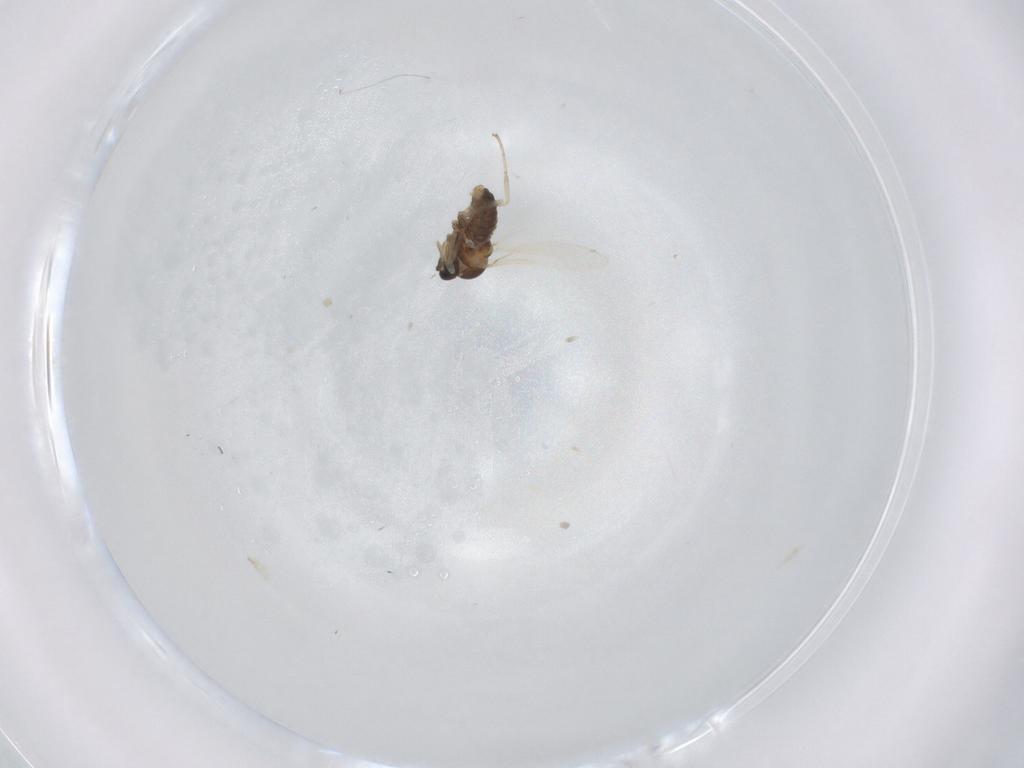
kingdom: Animalia
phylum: Arthropoda
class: Insecta
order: Diptera
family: Cecidomyiidae
